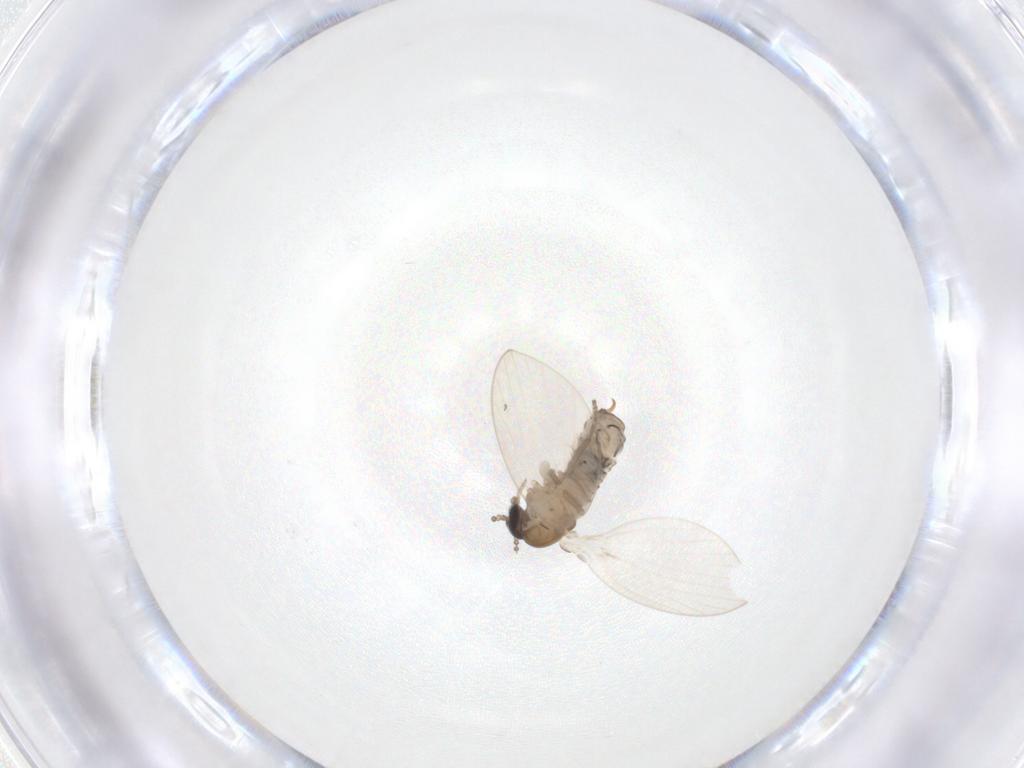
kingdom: Animalia
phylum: Arthropoda
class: Insecta
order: Diptera
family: Psychodidae
